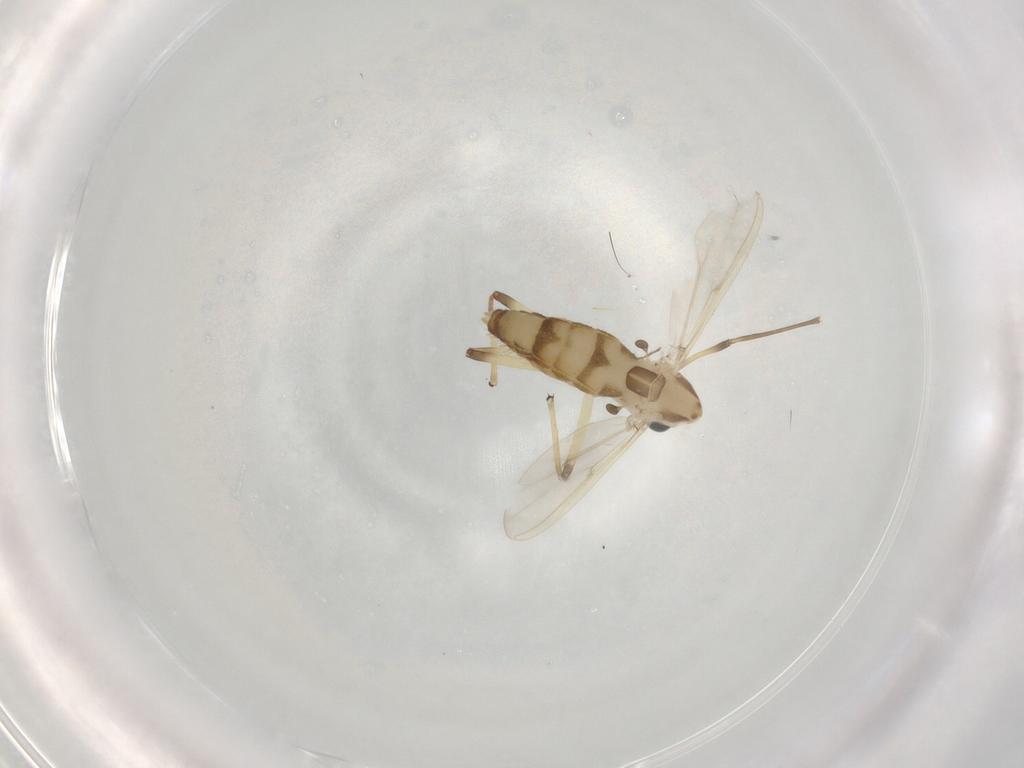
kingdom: Animalia
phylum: Arthropoda
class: Insecta
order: Diptera
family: Chironomidae
